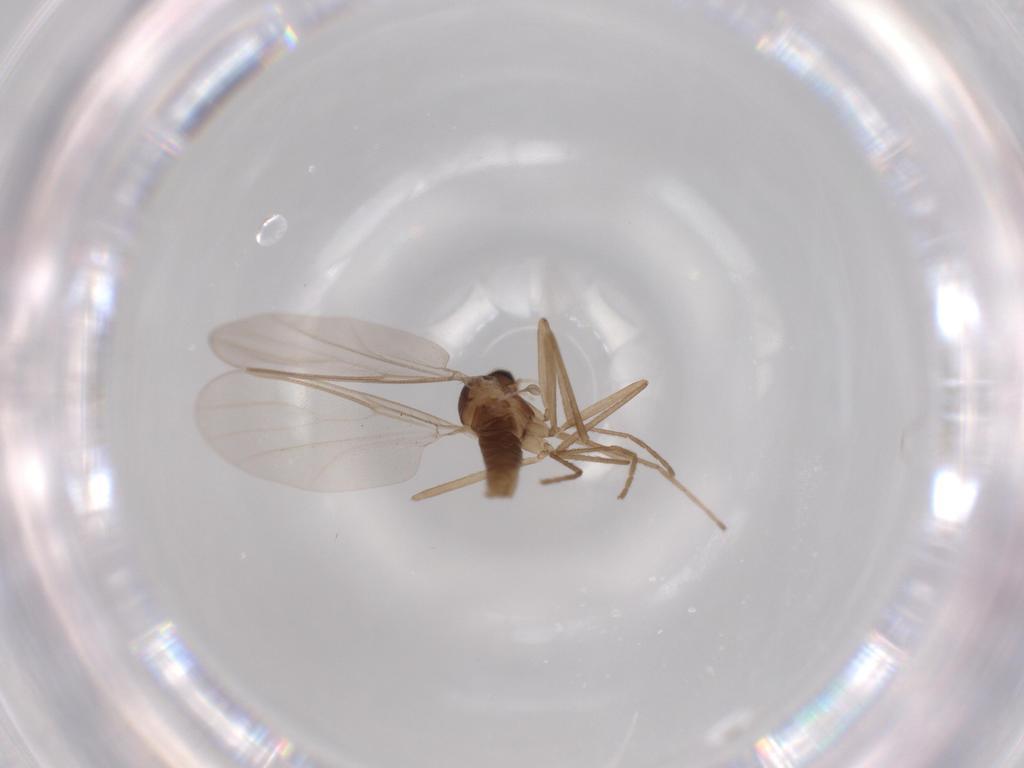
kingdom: Animalia
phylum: Arthropoda
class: Insecta
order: Diptera
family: Cecidomyiidae
